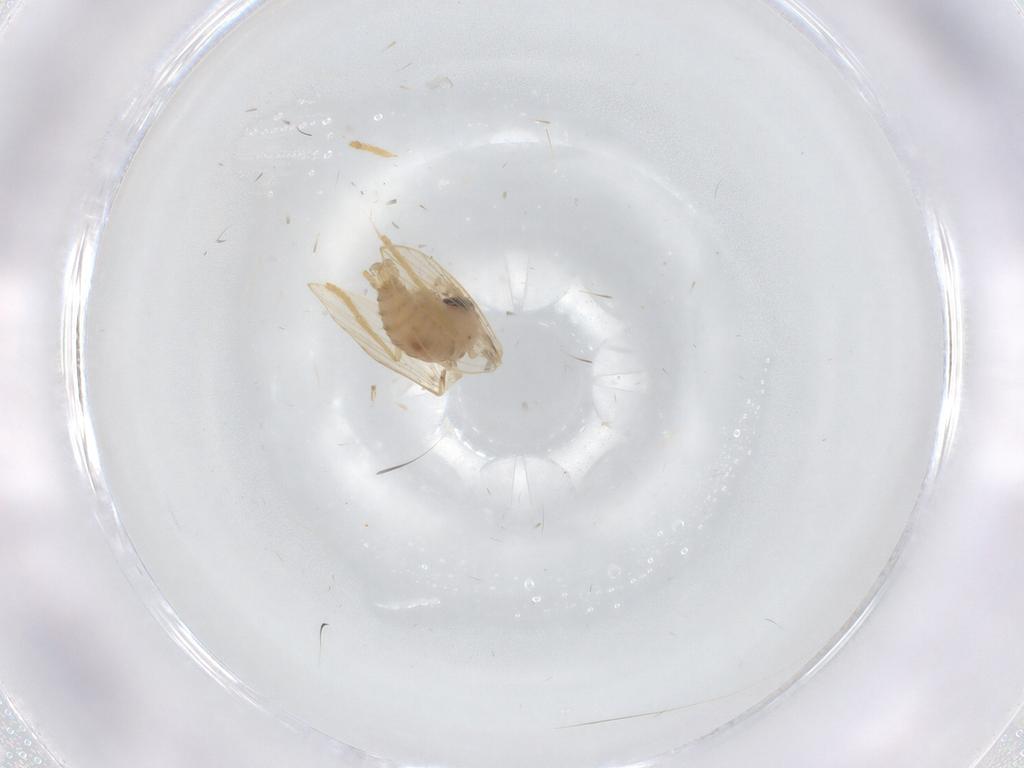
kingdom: Animalia
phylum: Arthropoda
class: Insecta
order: Diptera
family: Psychodidae
